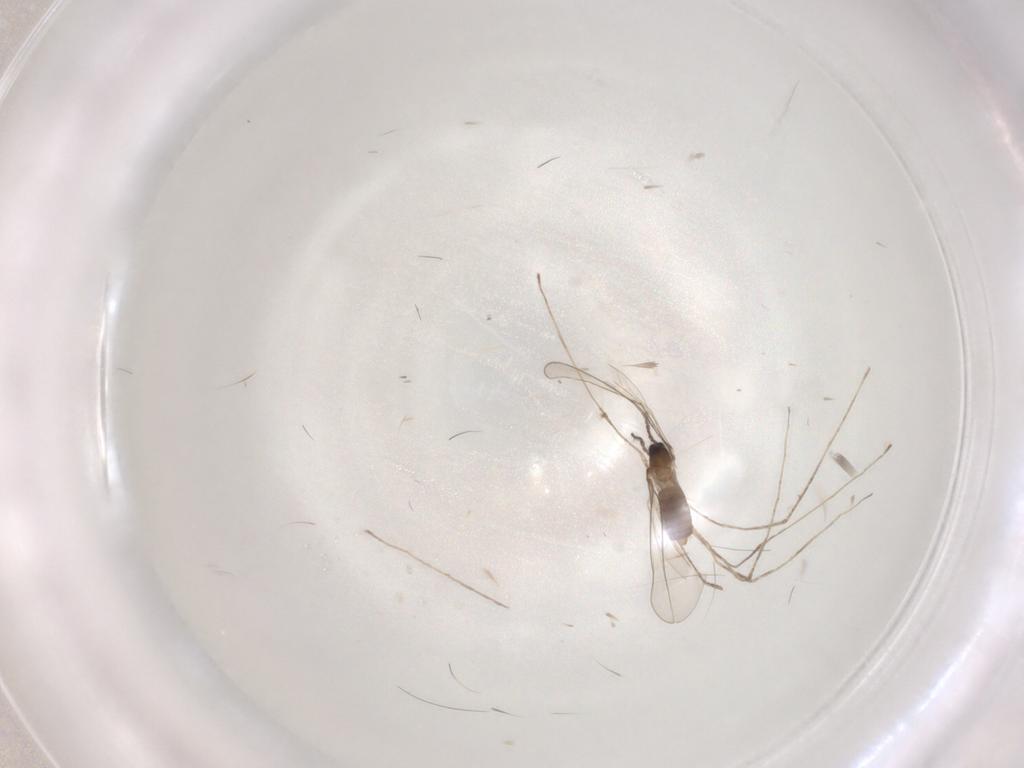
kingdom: Animalia
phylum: Arthropoda
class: Insecta
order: Diptera
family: Cecidomyiidae
